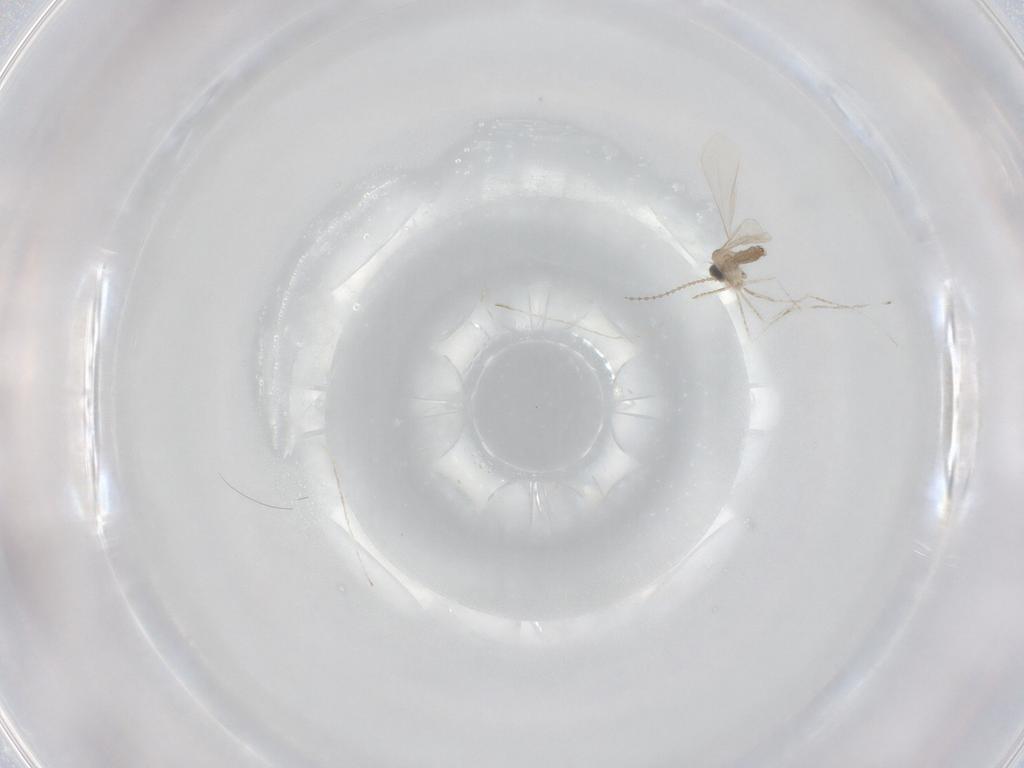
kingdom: Animalia
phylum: Arthropoda
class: Insecta
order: Diptera
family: Cecidomyiidae
